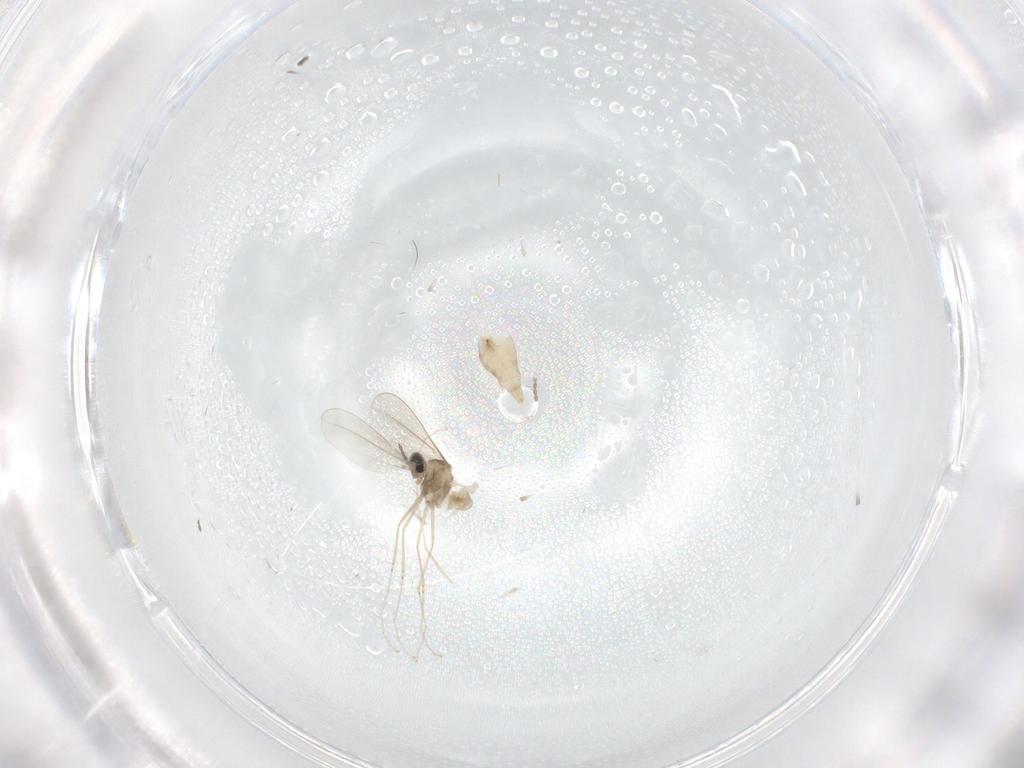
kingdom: Animalia
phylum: Arthropoda
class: Insecta
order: Diptera
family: Cecidomyiidae
